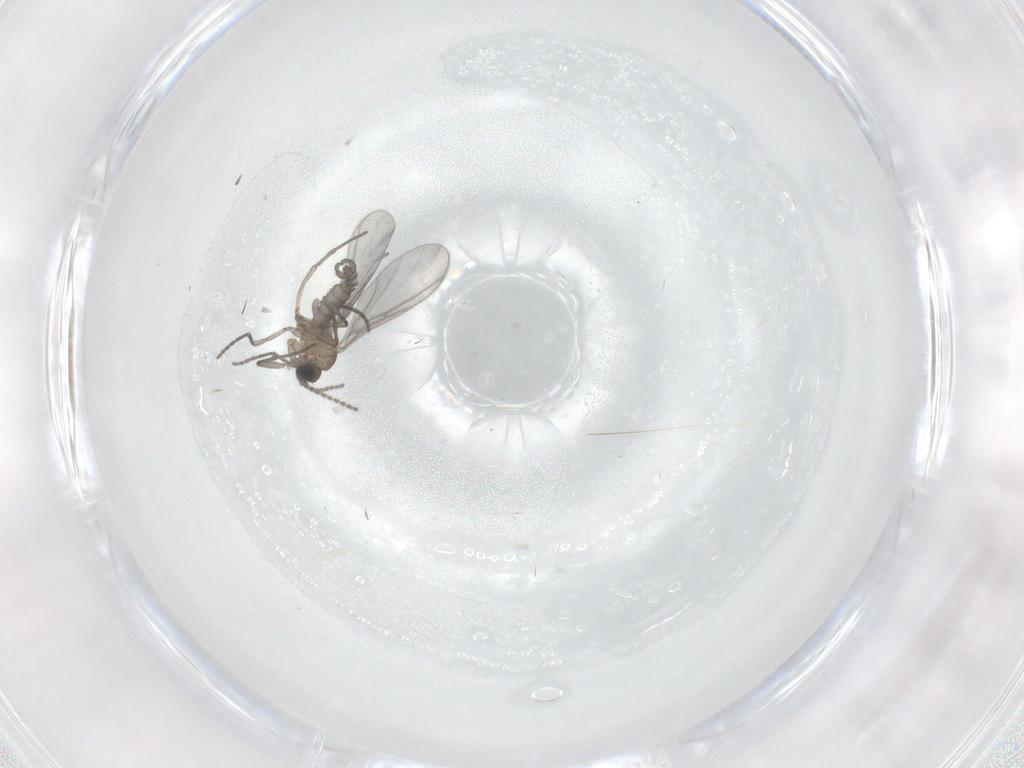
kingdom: Animalia
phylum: Arthropoda
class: Insecta
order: Diptera
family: Sciaridae
